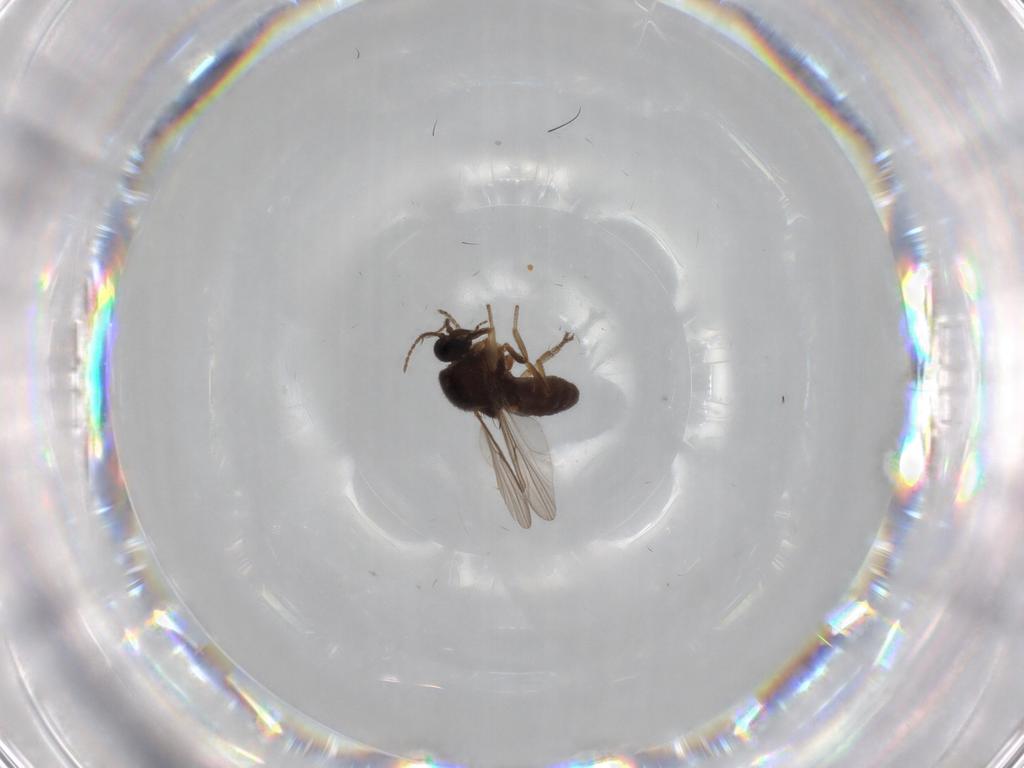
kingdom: Animalia
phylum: Arthropoda
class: Insecta
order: Diptera
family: Ceratopogonidae
